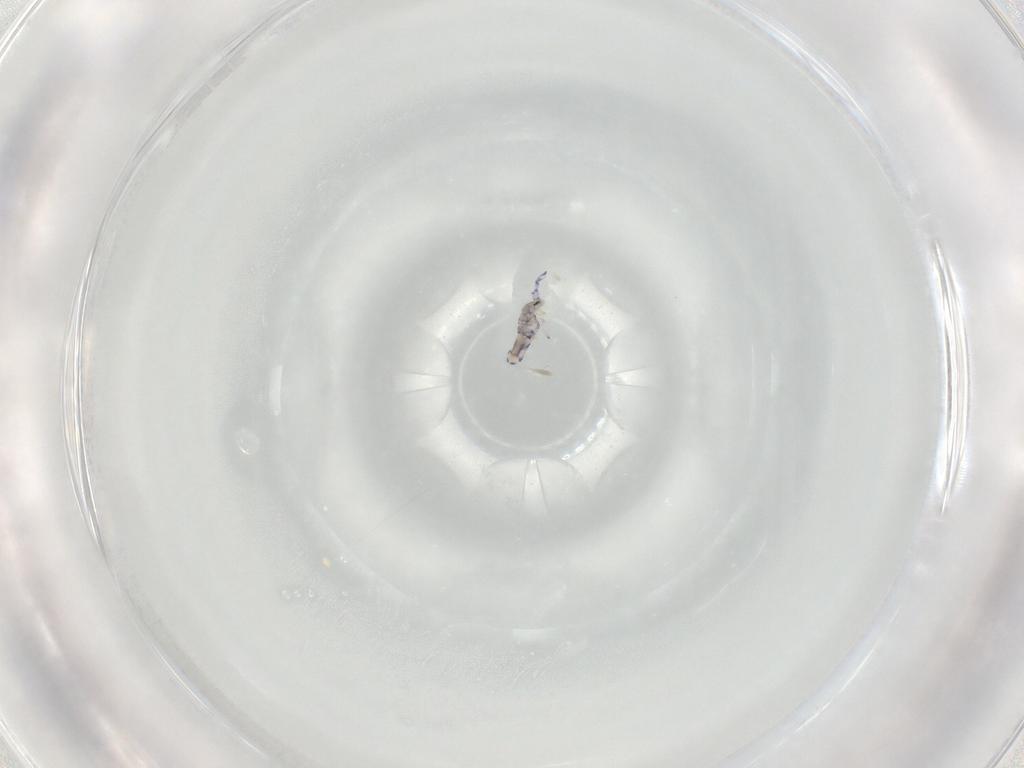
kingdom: Animalia
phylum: Arthropoda
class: Collembola
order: Entomobryomorpha
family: Entomobryidae
